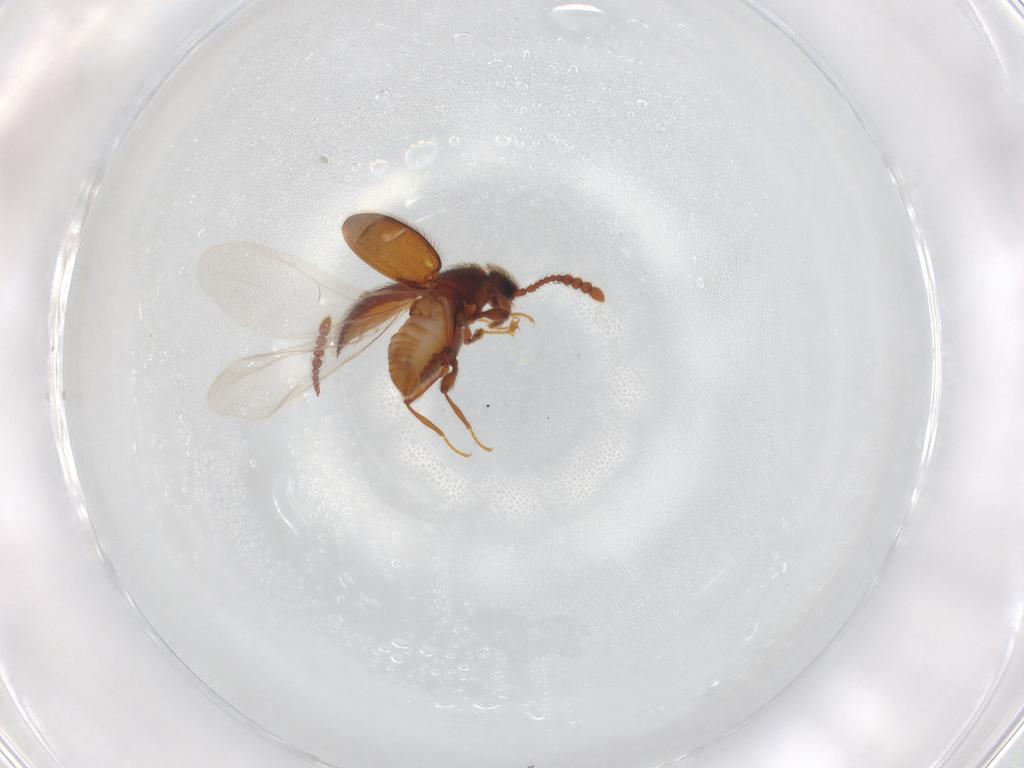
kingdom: Animalia
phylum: Arthropoda
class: Insecta
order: Coleoptera
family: Staphylinidae
